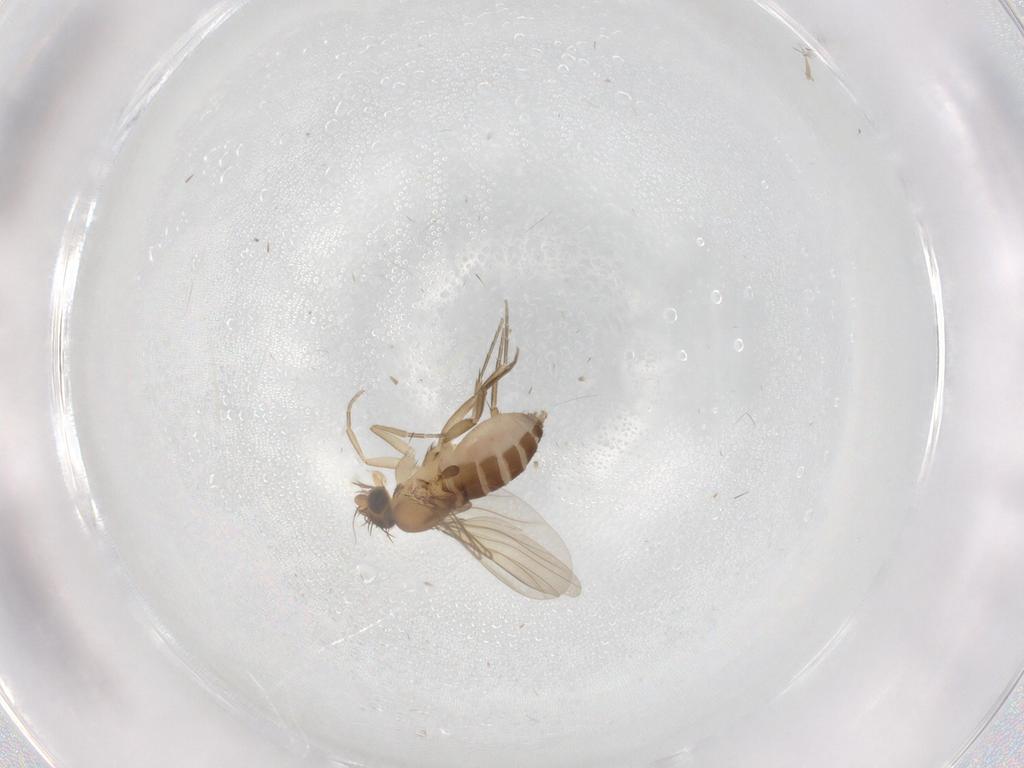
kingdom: Animalia
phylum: Arthropoda
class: Insecta
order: Diptera
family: Phoridae
